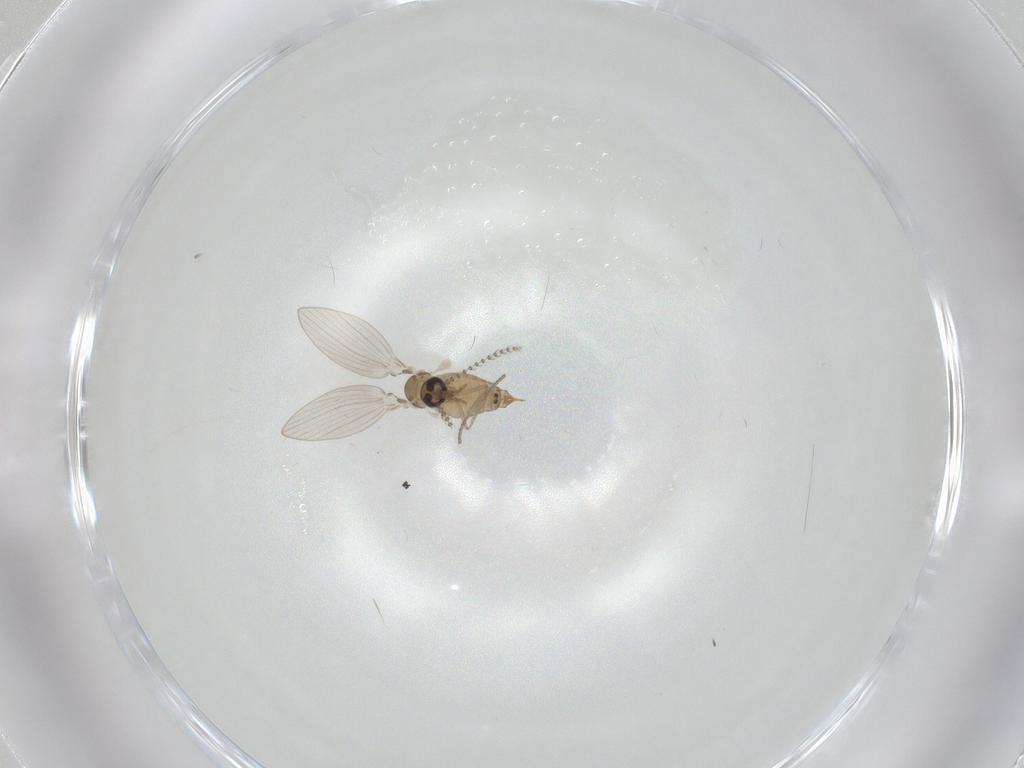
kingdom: Animalia
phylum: Arthropoda
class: Insecta
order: Diptera
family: Psychodidae
